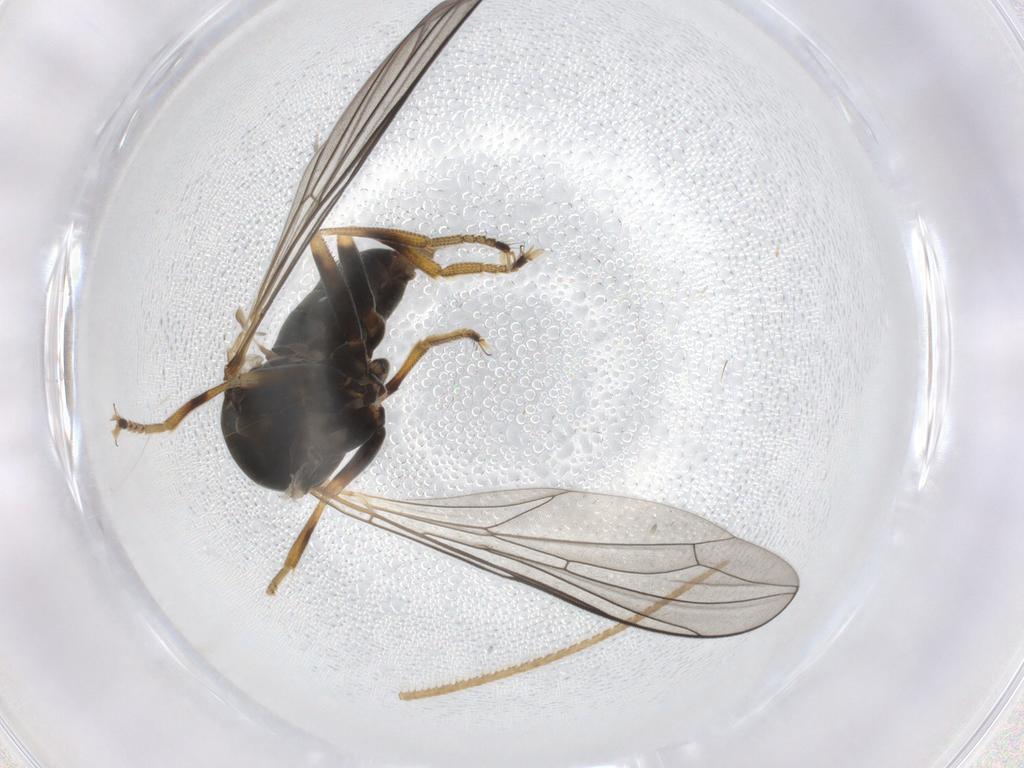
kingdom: Animalia
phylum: Arthropoda
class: Insecta
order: Diptera
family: Pipunculidae
